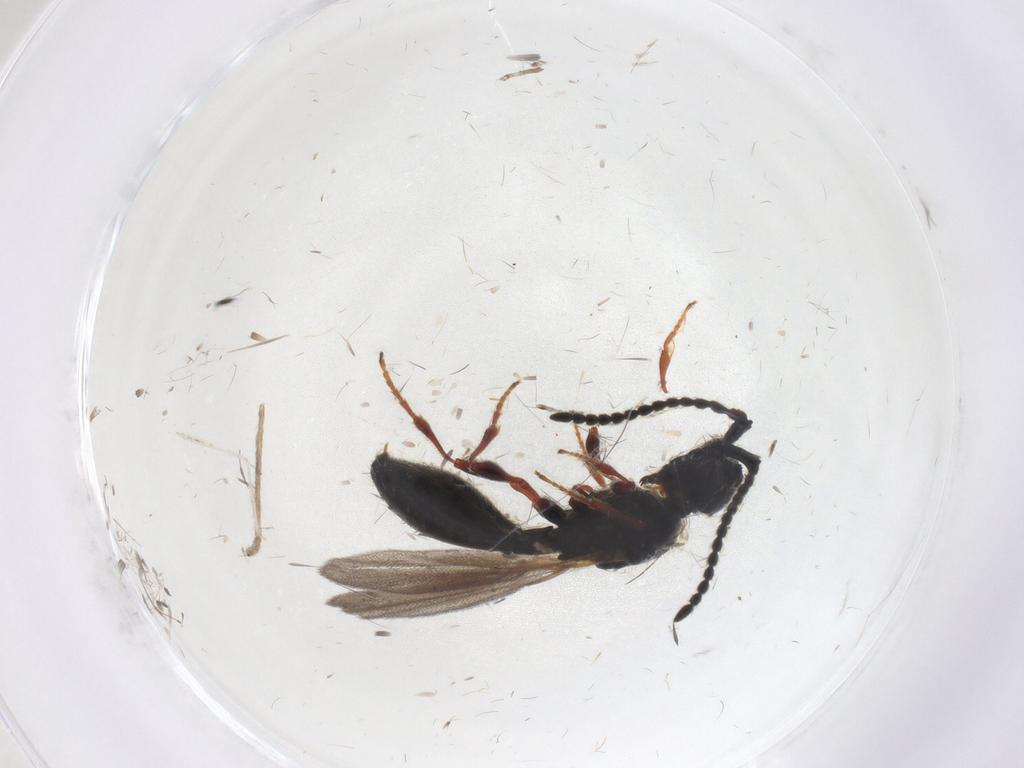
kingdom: Animalia
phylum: Arthropoda
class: Insecta
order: Hymenoptera
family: Diapriidae
